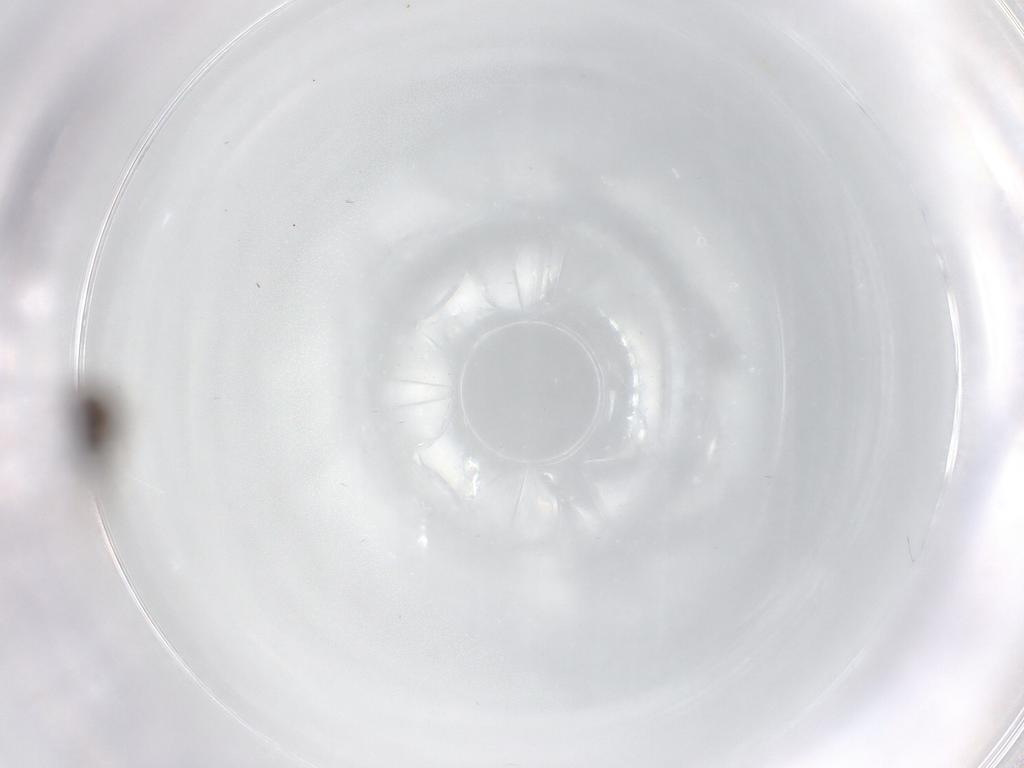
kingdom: Animalia
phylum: Arthropoda
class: Insecta
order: Diptera
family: Ceratopogonidae
